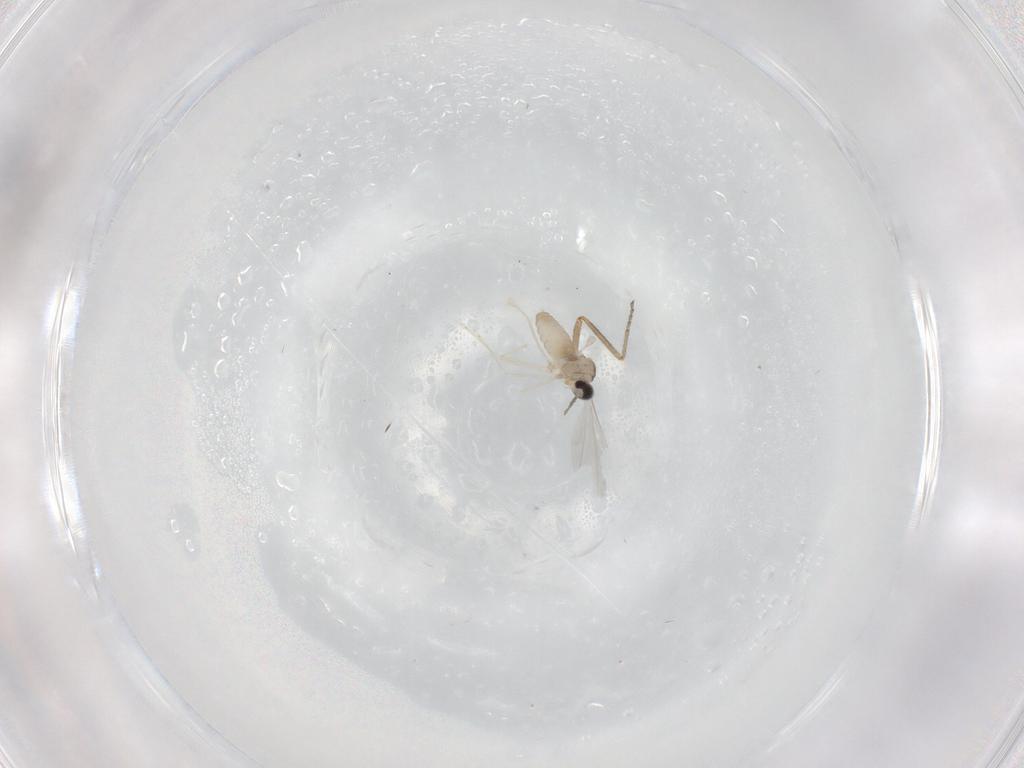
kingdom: Animalia
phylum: Arthropoda
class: Insecta
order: Diptera
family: Cecidomyiidae
